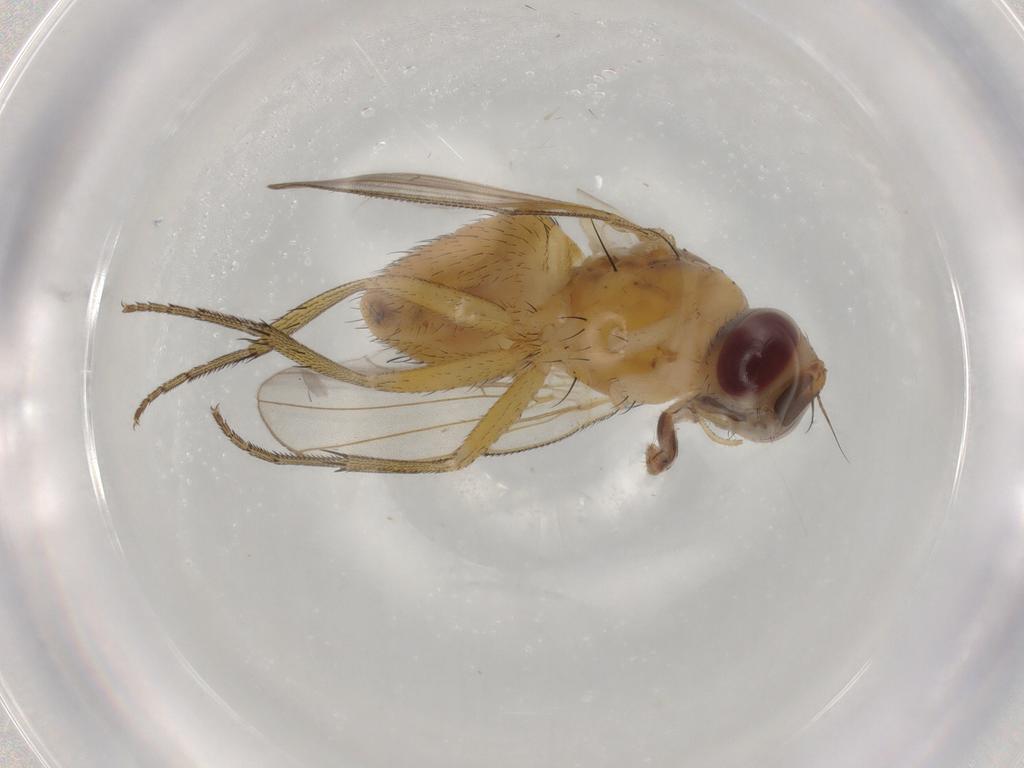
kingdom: Animalia
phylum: Arthropoda
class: Insecta
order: Diptera
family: Muscidae
